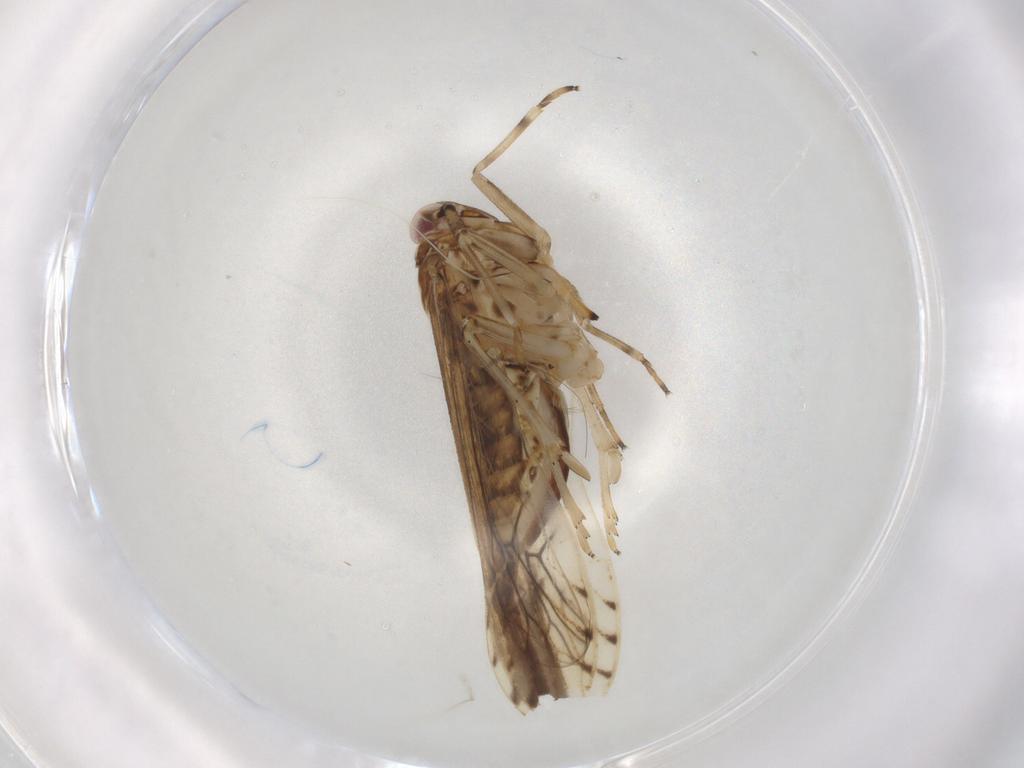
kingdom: Animalia
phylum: Arthropoda
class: Insecta
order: Hemiptera
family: Delphacidae
